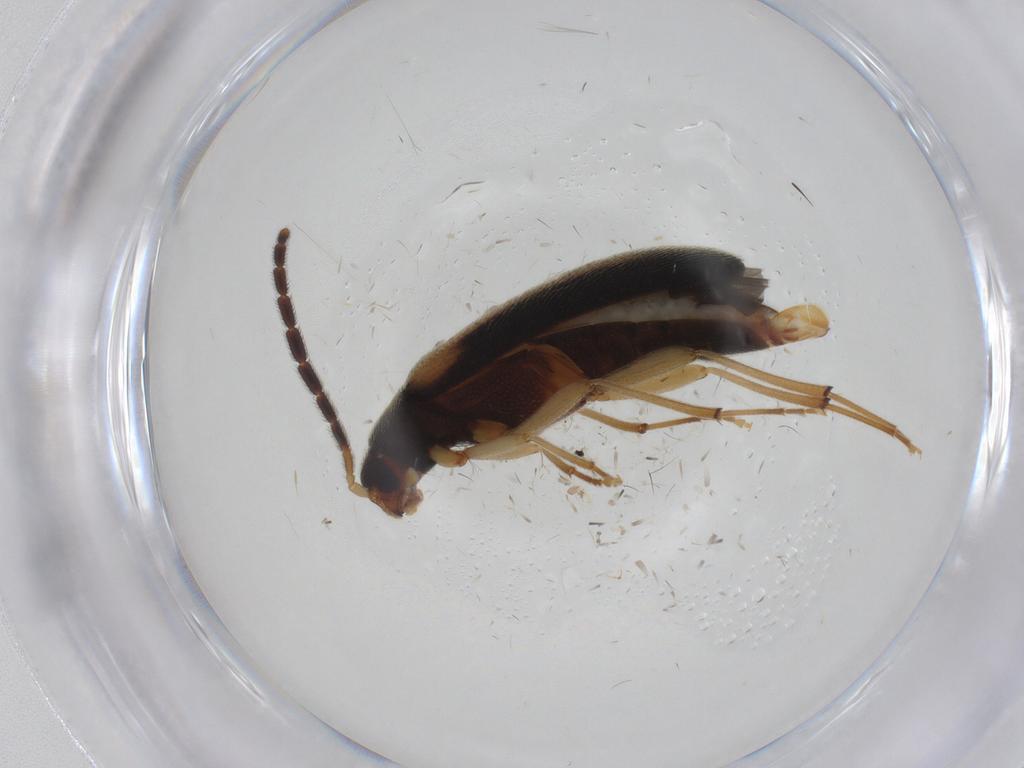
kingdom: Animalia
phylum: Arthropoda
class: Insecta
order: Coleoptera
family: Melandryidae
